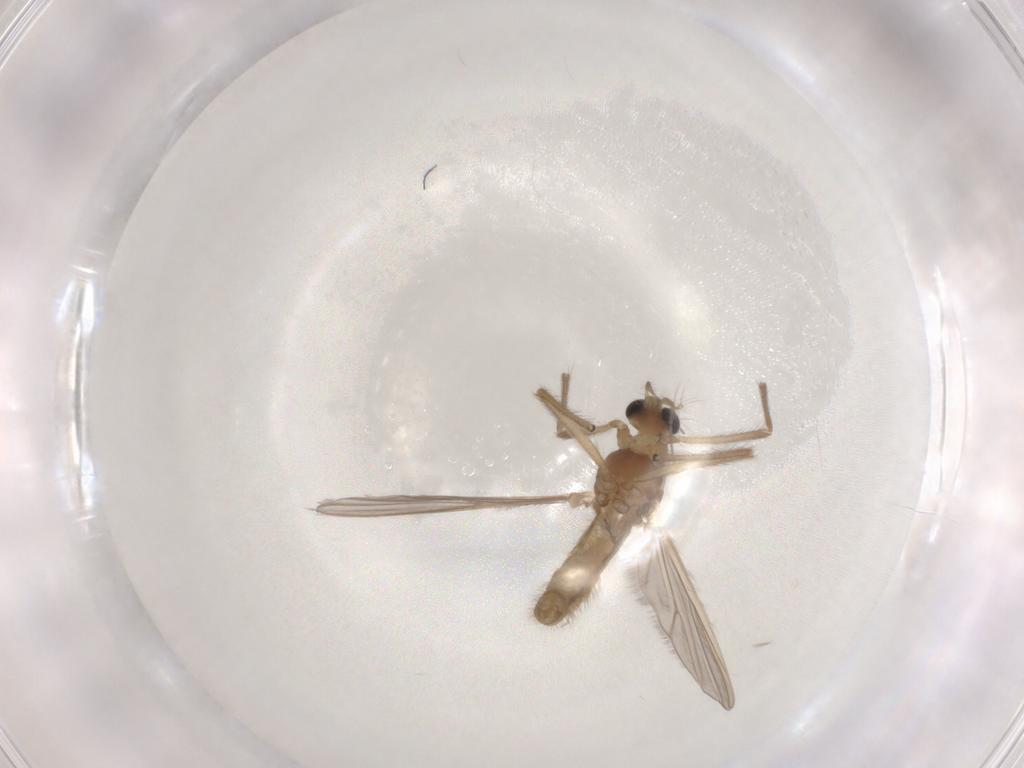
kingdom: Animalia
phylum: Arthropoda
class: Insecta
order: Diptera
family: Chironomidae
